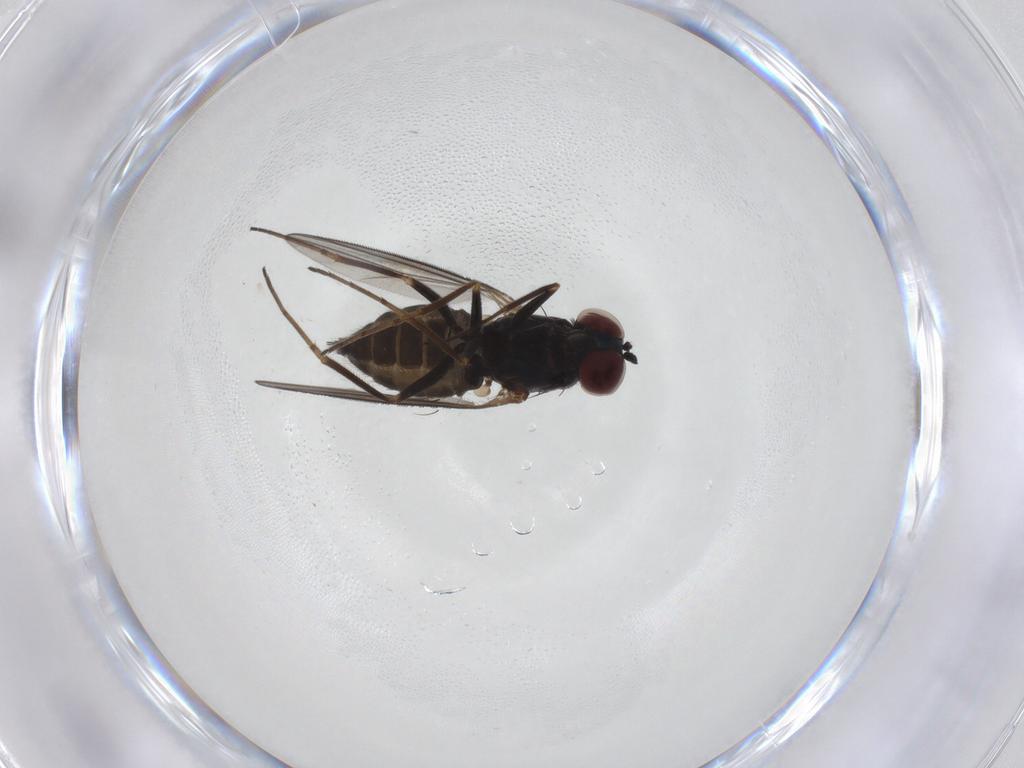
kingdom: Animalia
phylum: Arthropoda
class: Insecta
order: Diptera
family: Dolichopodidae
